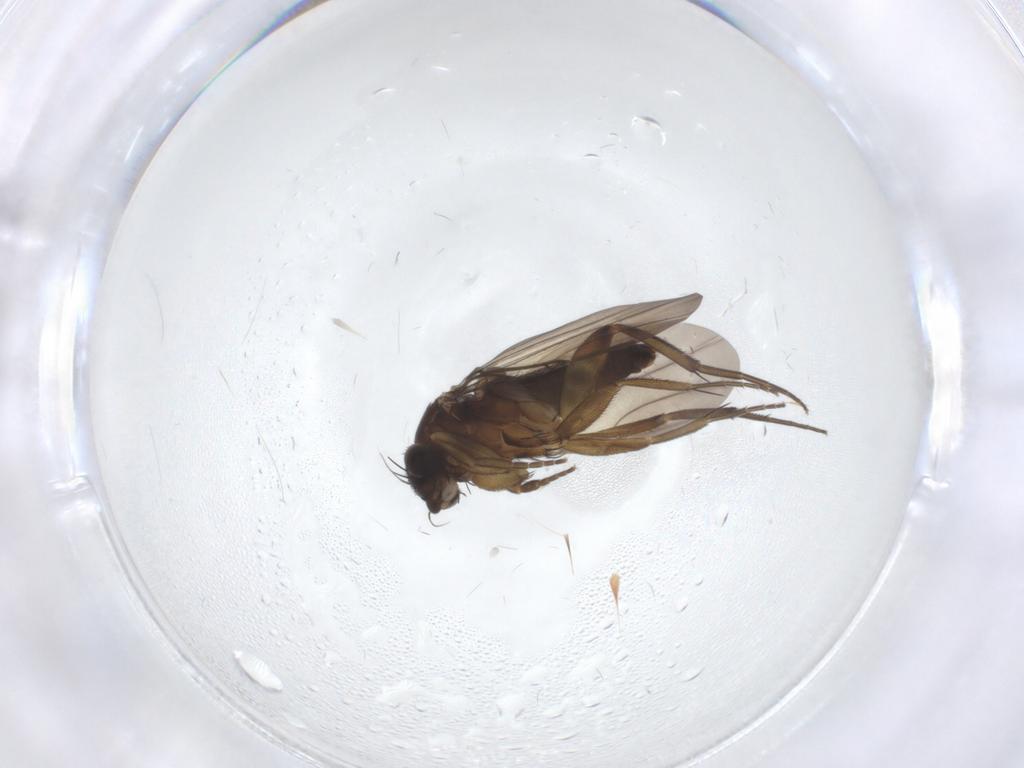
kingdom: Animalia
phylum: Arthropoda
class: Insecta
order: Diptera
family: Phoridae
